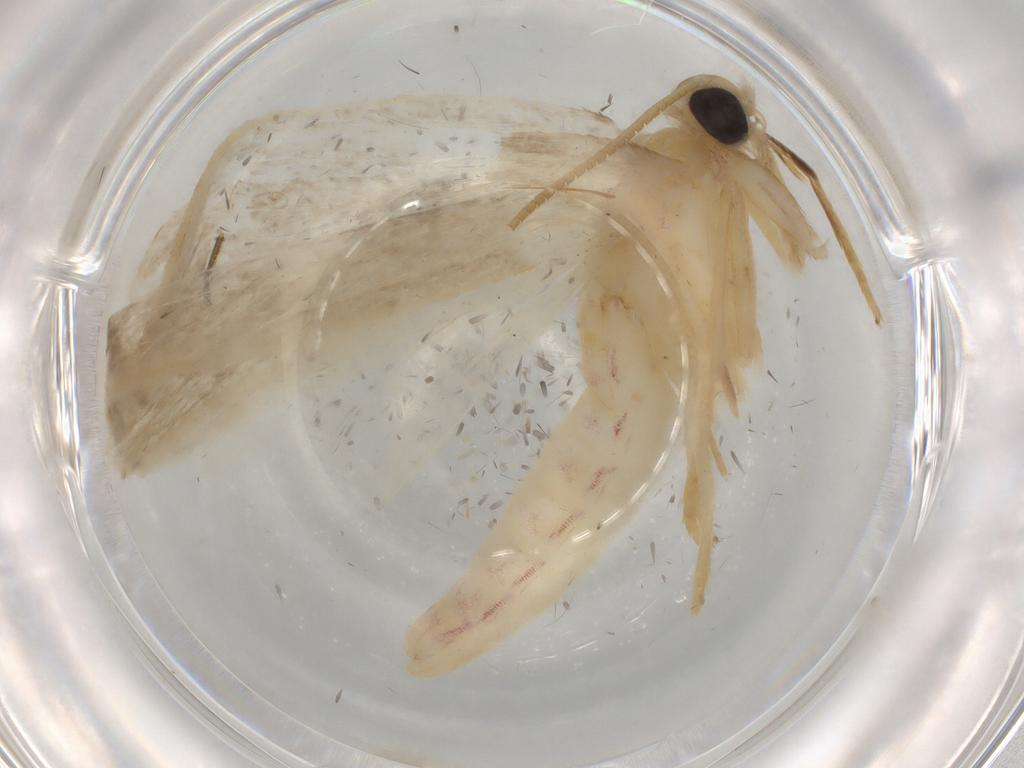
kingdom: Animalia
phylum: Arthropoda
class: Insecta
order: Lepidoptera
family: Crambidae
